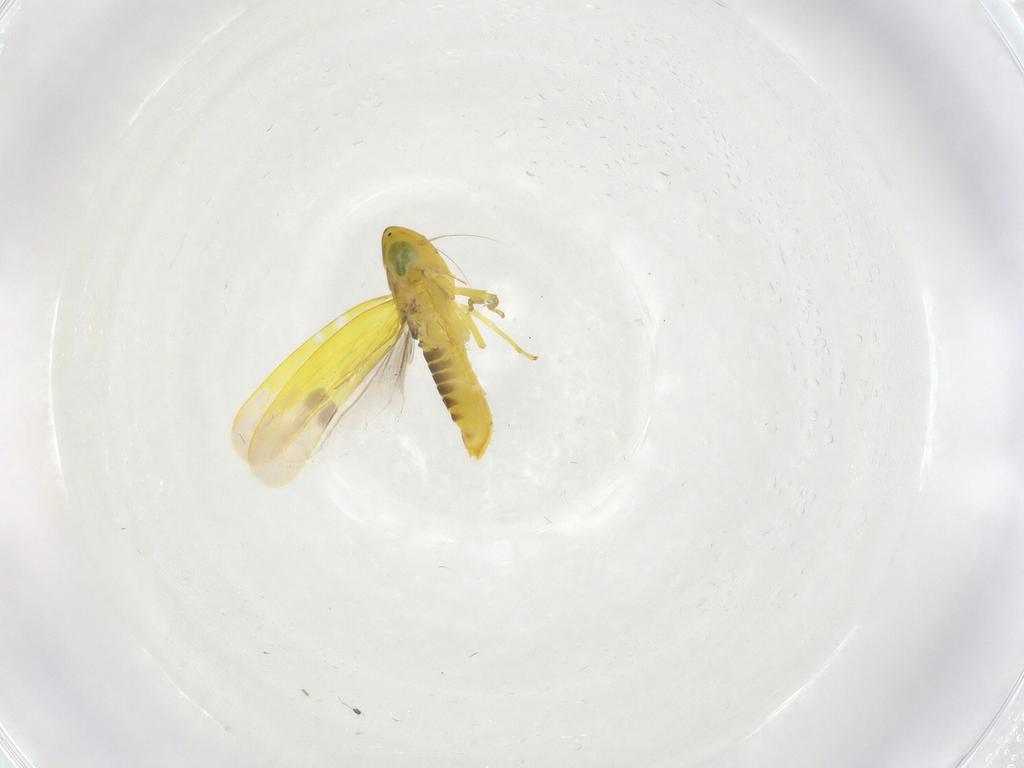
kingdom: Animalia
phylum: Arthropoda
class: Insecta
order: Hemiptera
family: Cicadellidae
